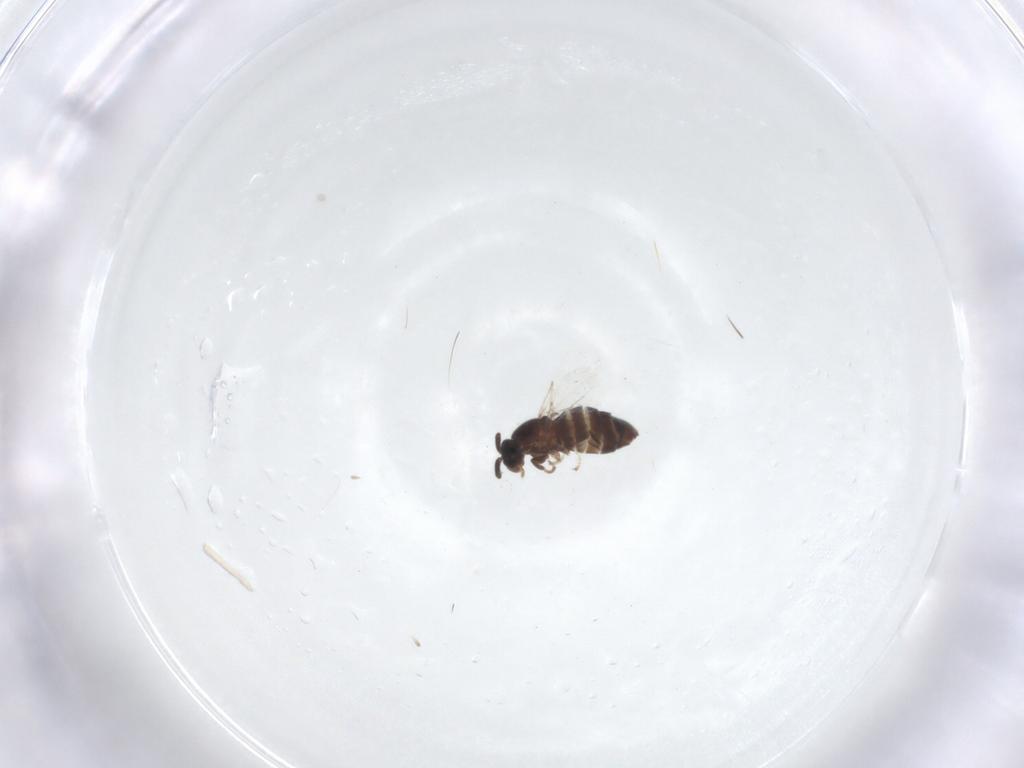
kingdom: Animalia
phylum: Arthropoda
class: Insecta
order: Diptera
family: Scatopsidae
